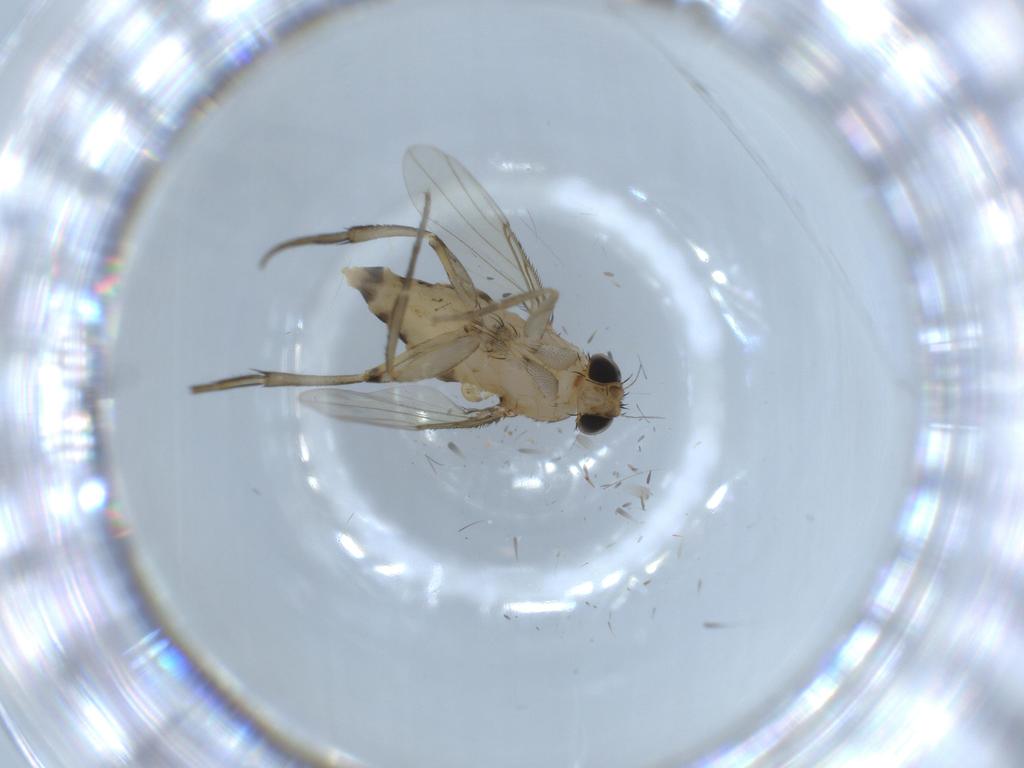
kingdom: Animalia
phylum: Arthropoda
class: Insecta
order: Diptera
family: Phoridae
